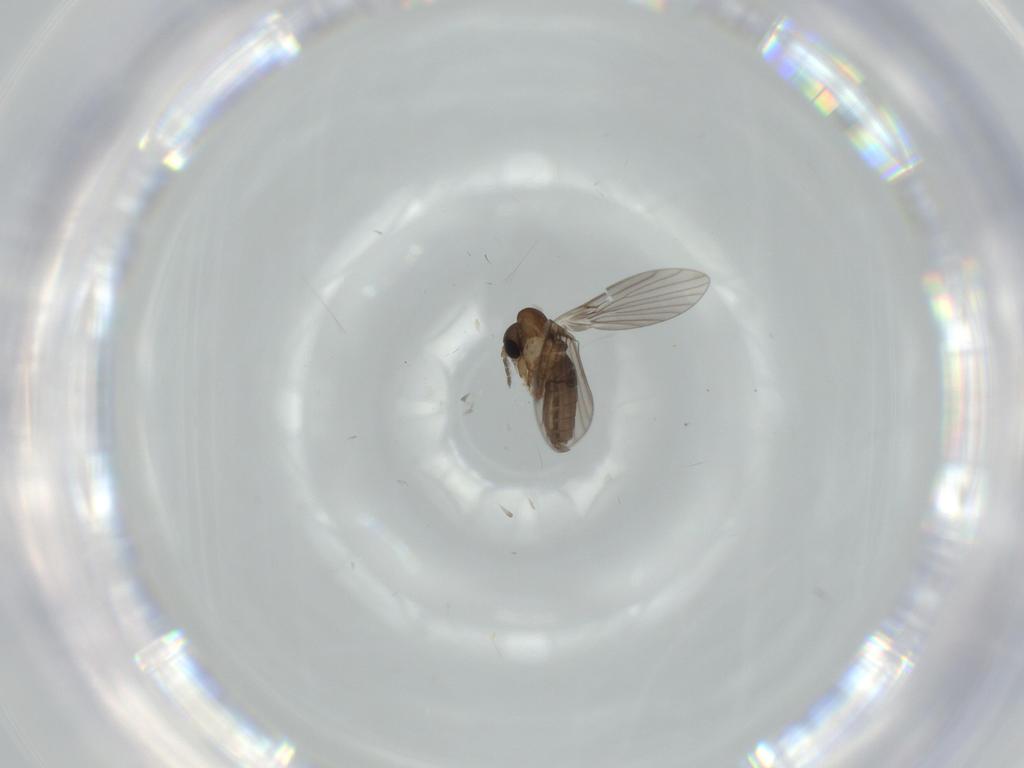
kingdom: Animalia
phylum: Arthropoda
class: Insecta
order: Diptera
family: Psychodidae
